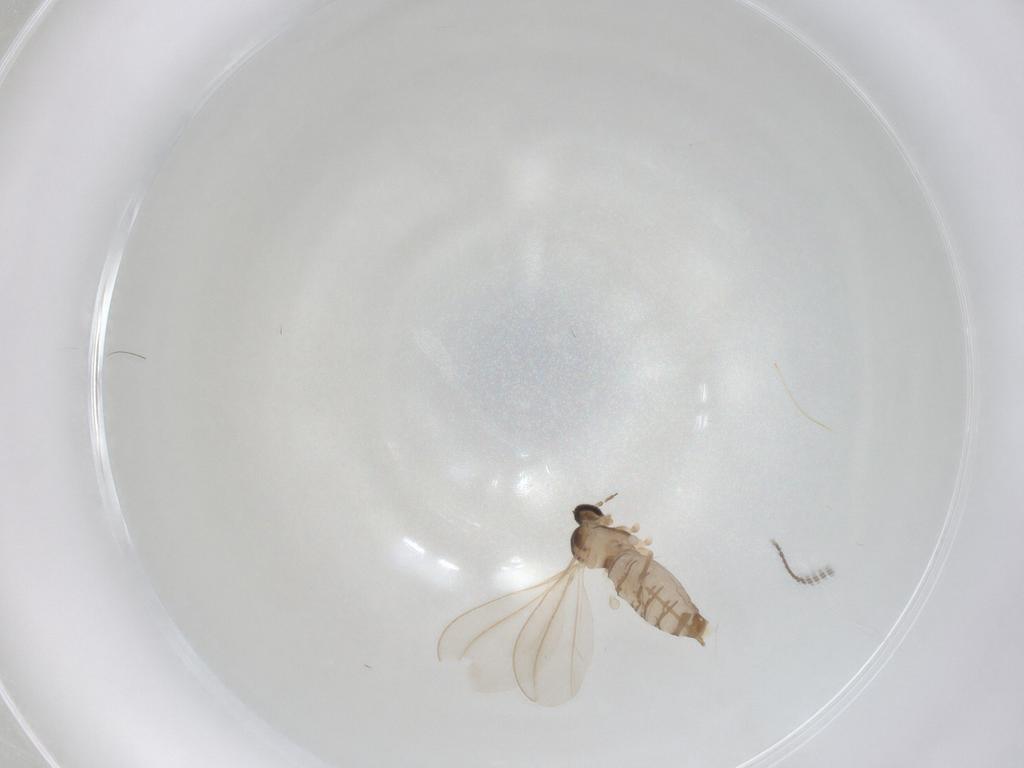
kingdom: Animalia
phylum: Arthropoda
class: Insecta
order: Diptera
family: Cecidomyiidae
